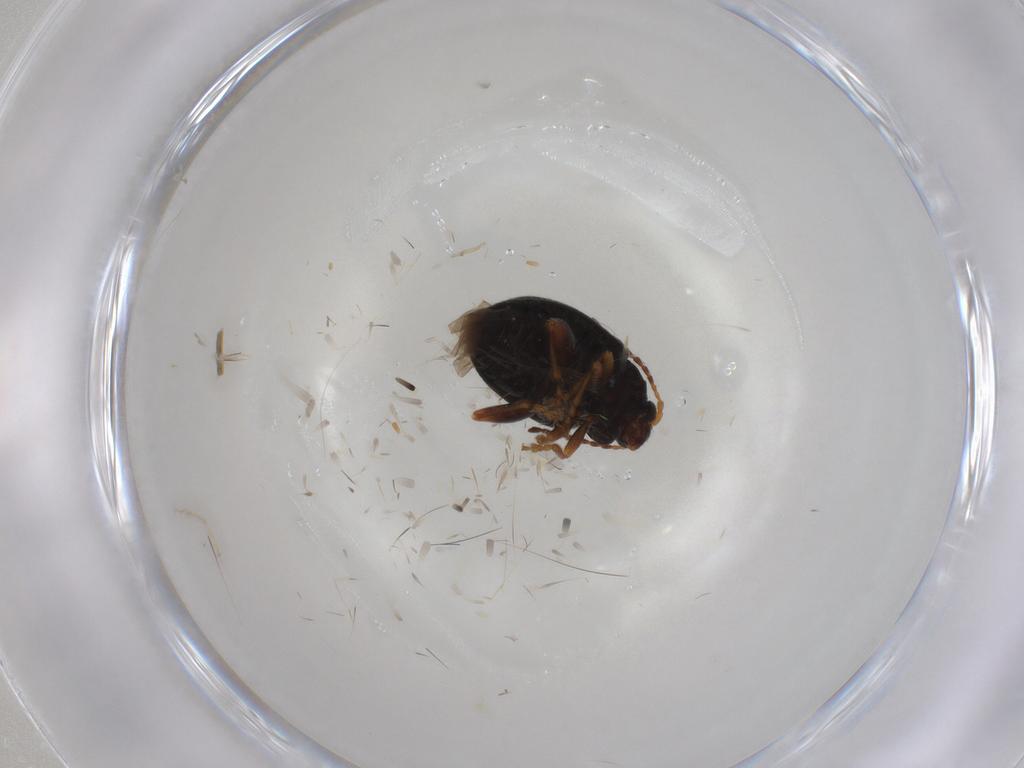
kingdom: Animalia
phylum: Arthropoda
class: Insecta
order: Coleoptera
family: Chrysomelidae
